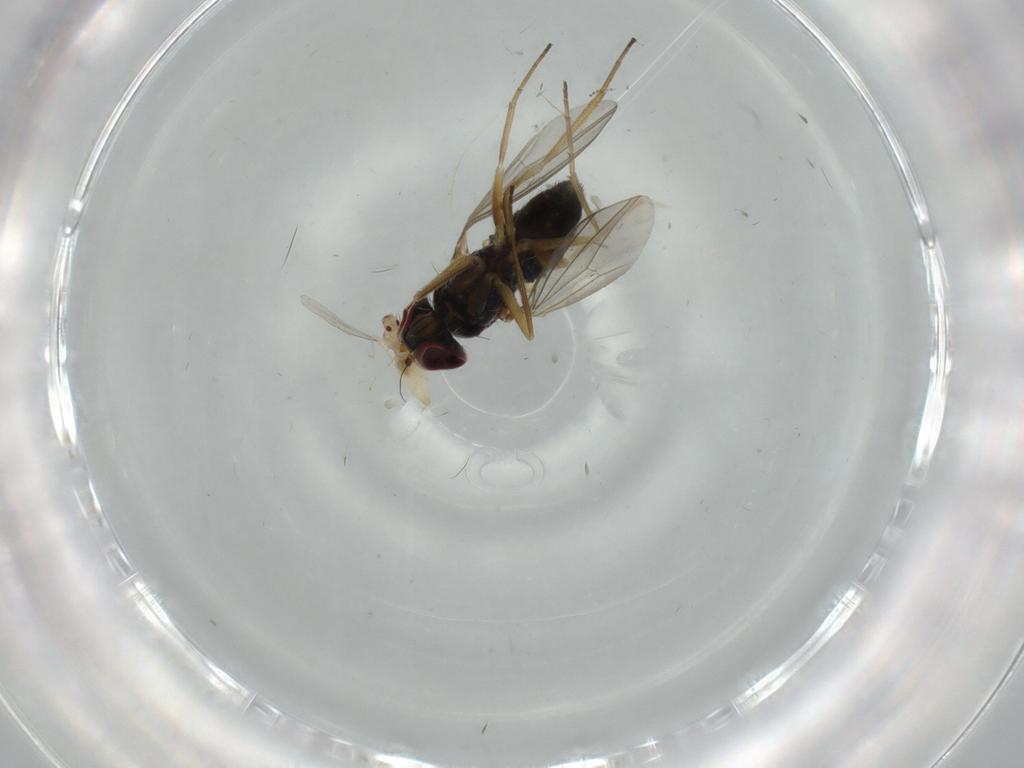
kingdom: Animalia
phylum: Arthropoda
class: Insecta
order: Diptera
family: Sciaridae
